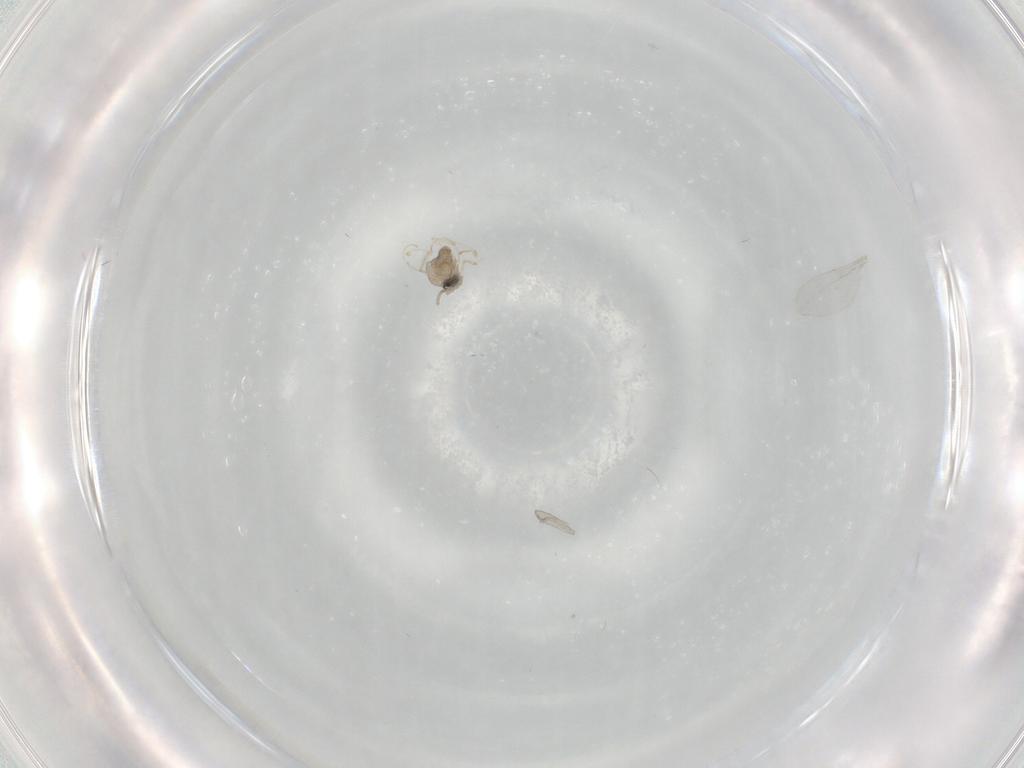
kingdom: Animalia
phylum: Arthropoda
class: Insecta
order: Diptera
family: Cecidomyiidae
